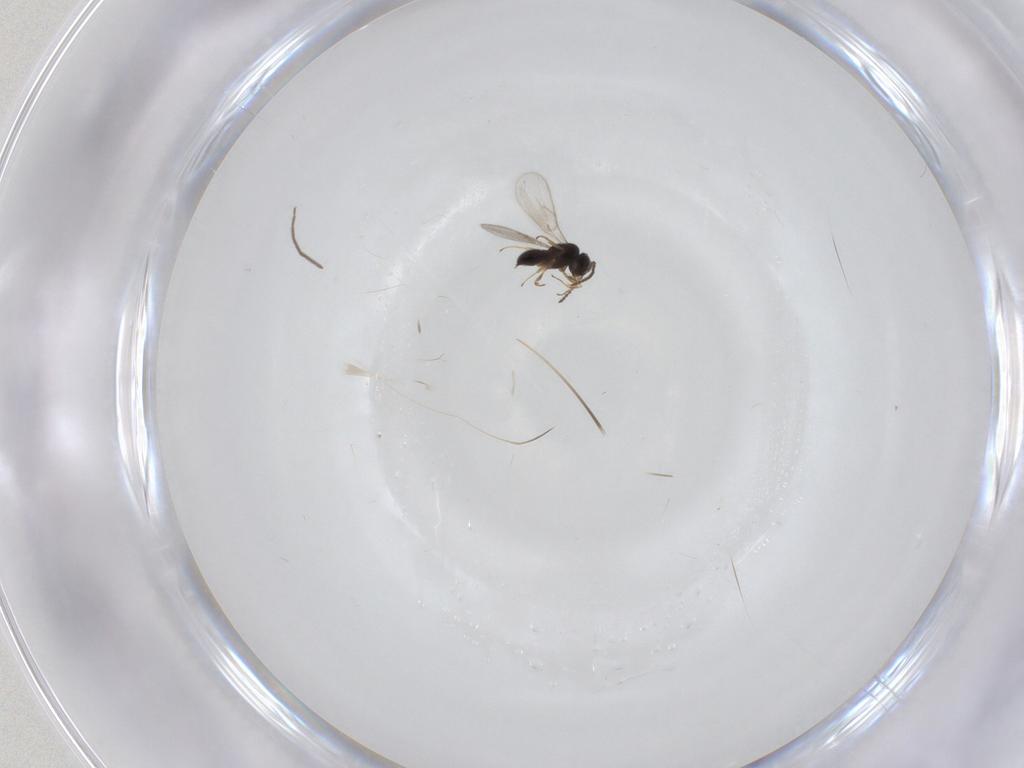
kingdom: Animalia
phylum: Arthropoda
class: Insecta
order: Hymenoptera
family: Scelionidae
